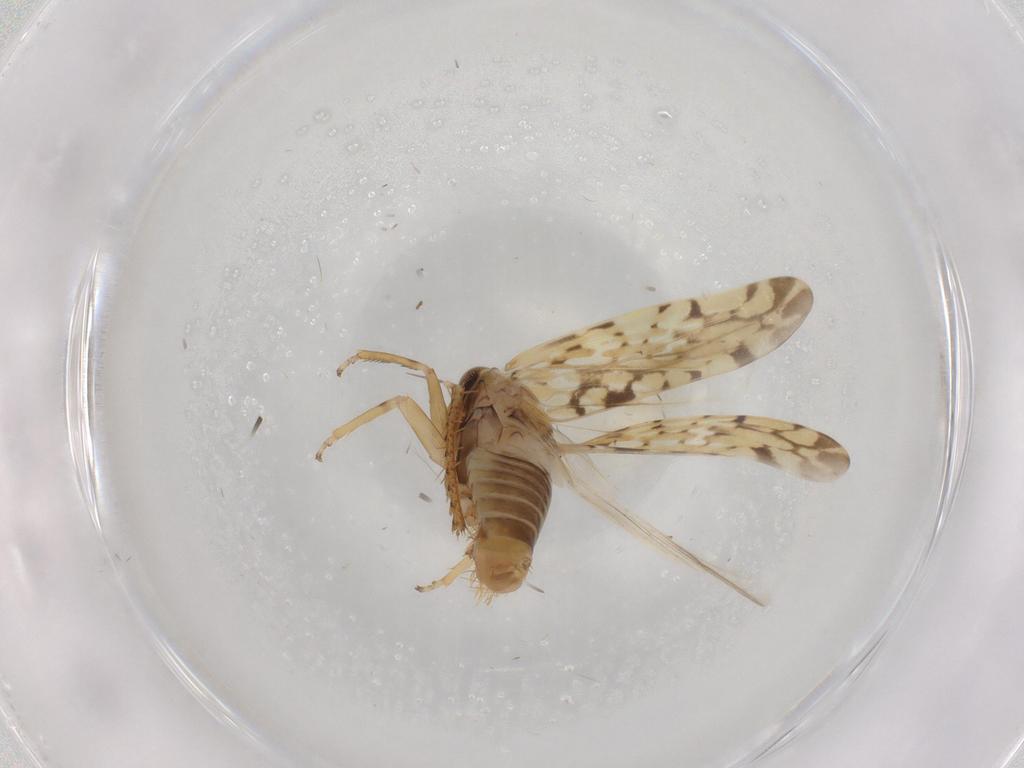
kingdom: Animalia
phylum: Arthropoda
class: Insecta
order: Hemiptera
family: Cicadellidae
